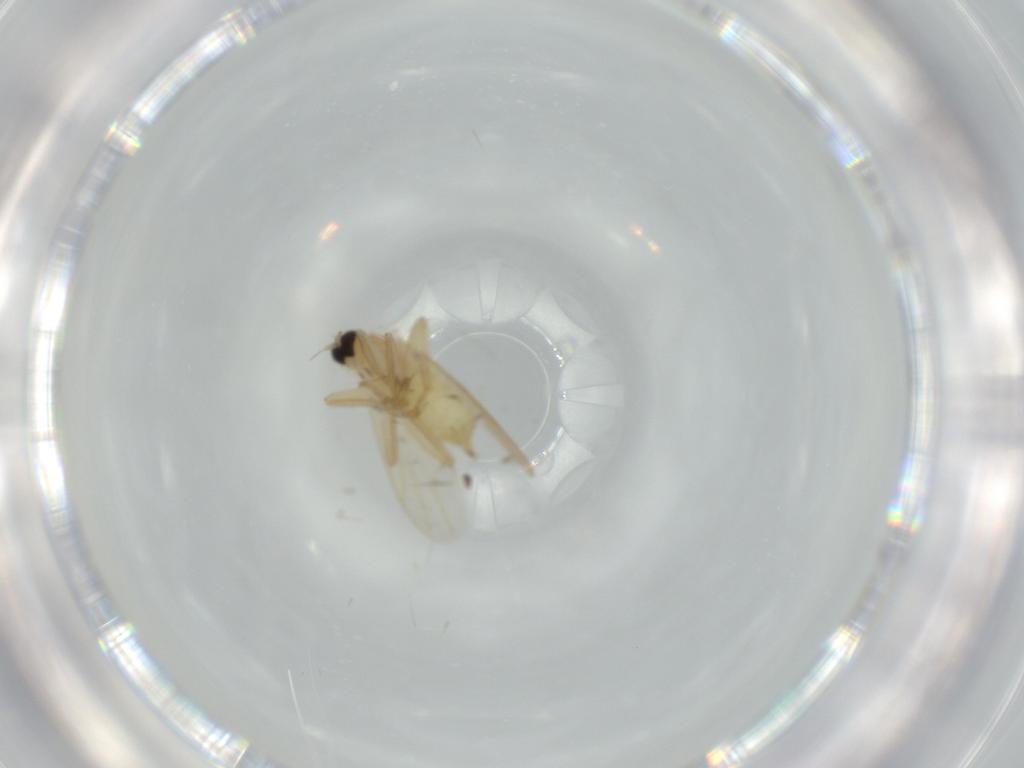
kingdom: Animalia
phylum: Arthropoda
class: Insecta
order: Diptera
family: Hybotidae
